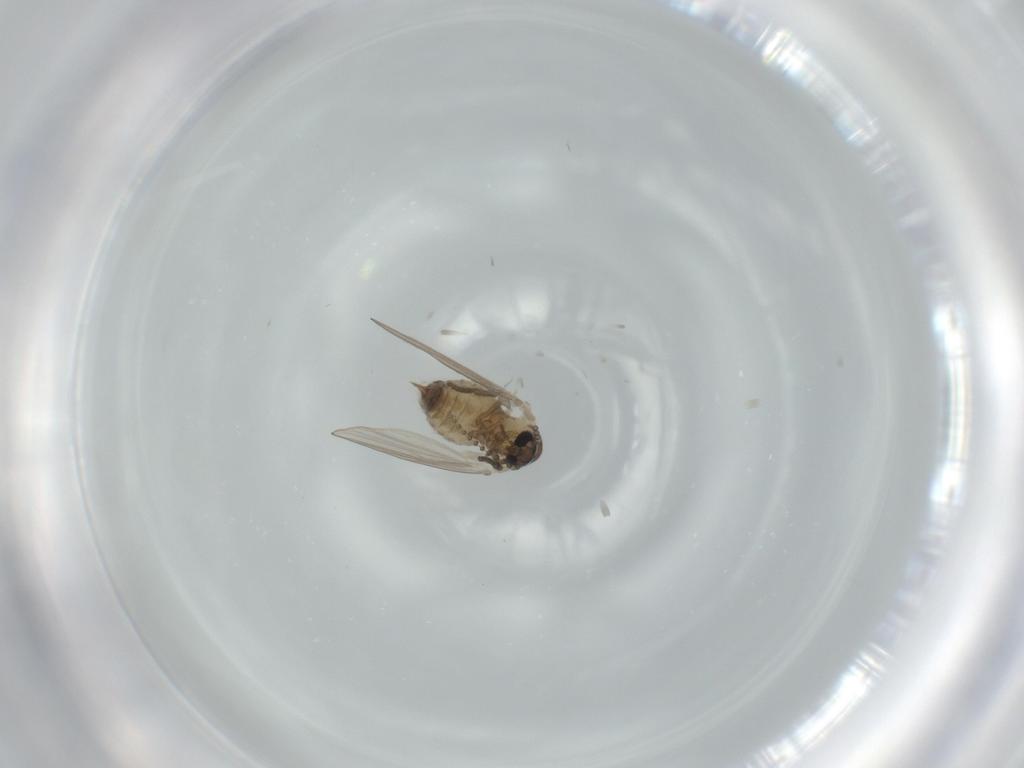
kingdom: Animalia
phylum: Arthropoda
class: Insecta
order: Diptera
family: Psychodidae
